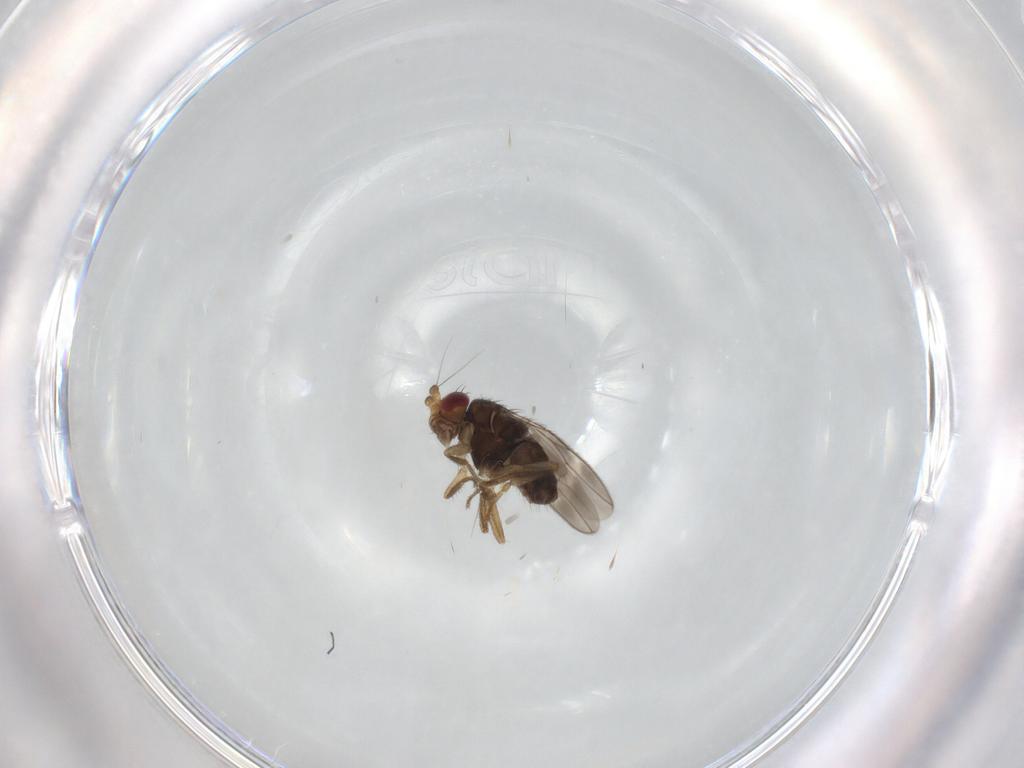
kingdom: Animalia
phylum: Arthropoda
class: Insecta
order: Diptera
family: Sphaeroceridae
